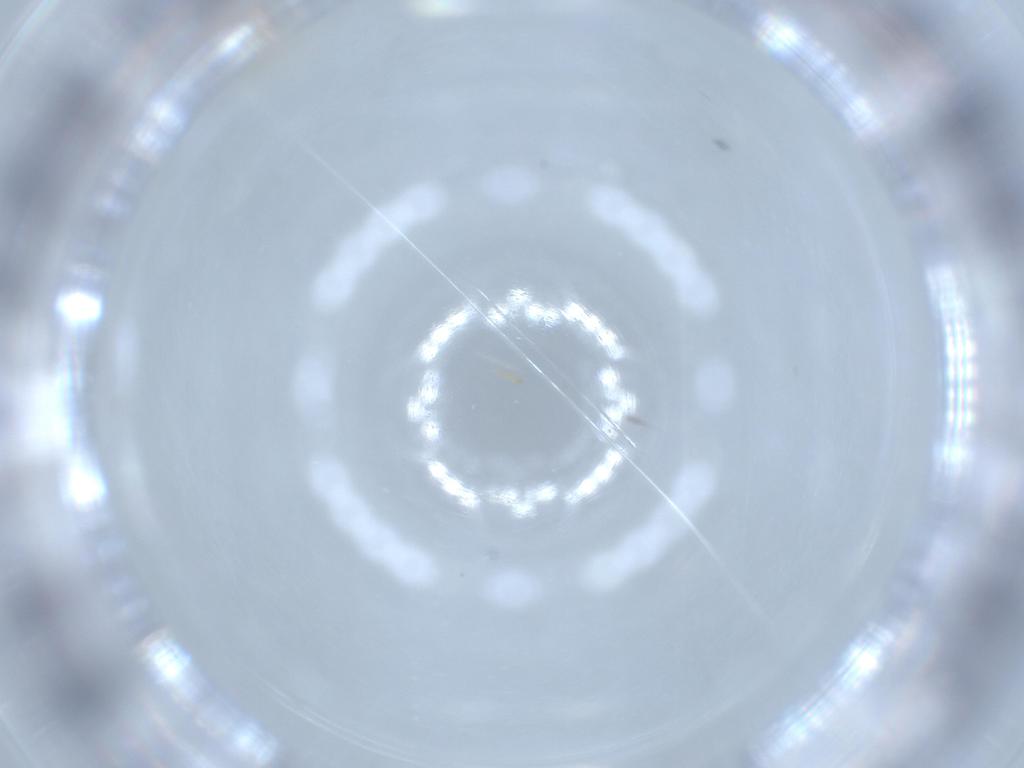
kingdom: Animalia
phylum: Arthropoda
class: Insecta
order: Diptera
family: Cecidomyiidae
